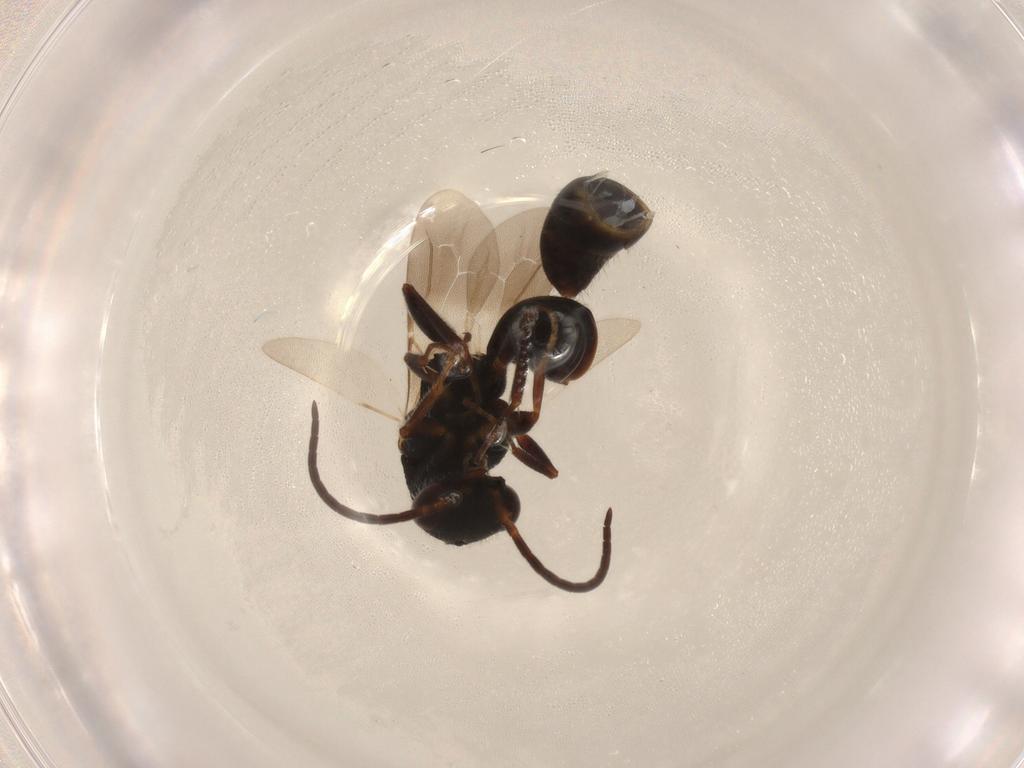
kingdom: Animalia
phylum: Arthropoda
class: Insecta
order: Hymenoptera
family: Bethylidae
